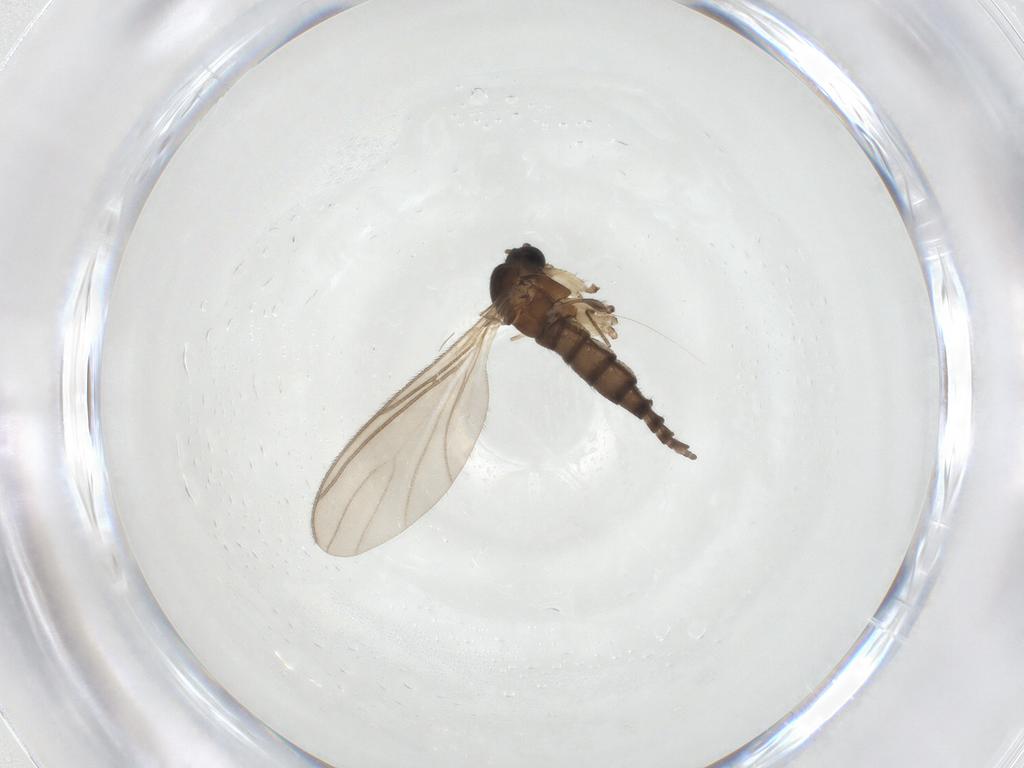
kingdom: Animalia
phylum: Arthropoda
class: Insecta
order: Diptera
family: Sciaridae
